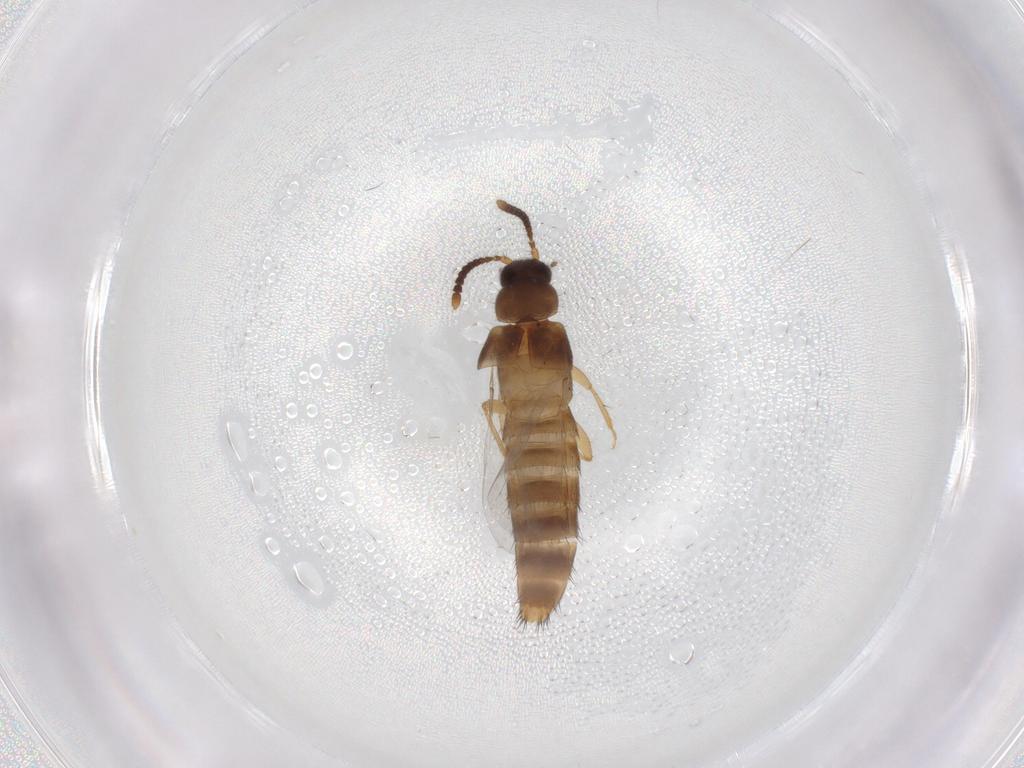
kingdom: Animalia
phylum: Arthropoda
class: Insecta
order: Coleoptera
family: Staphylinidae
